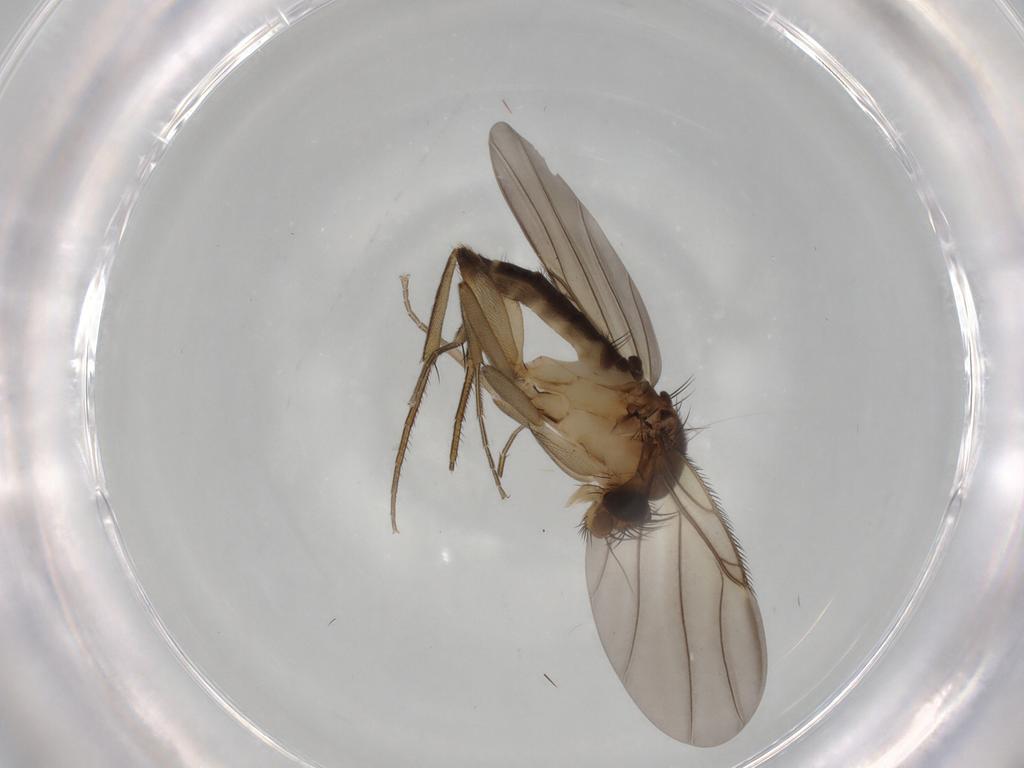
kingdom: Animalia
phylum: Arthropoda
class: Insecta
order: Diptera
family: Phoridae
